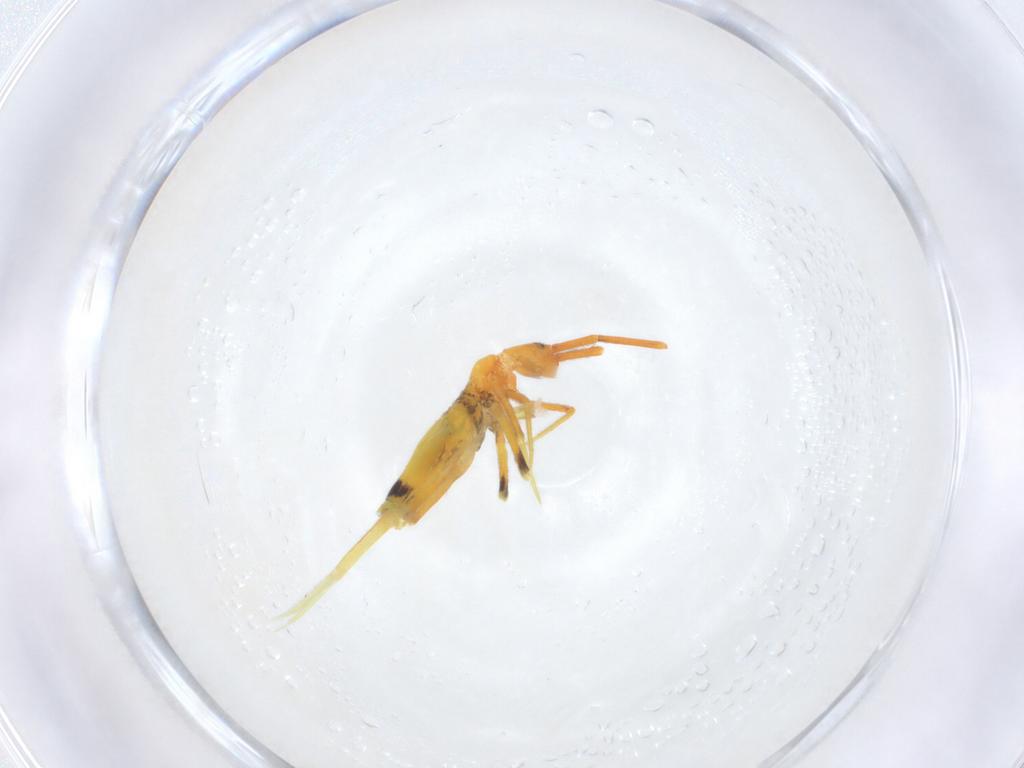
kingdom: Animalia
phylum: Arthropoda
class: Collembola
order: Entomobryomorpha
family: Entomobryidae
